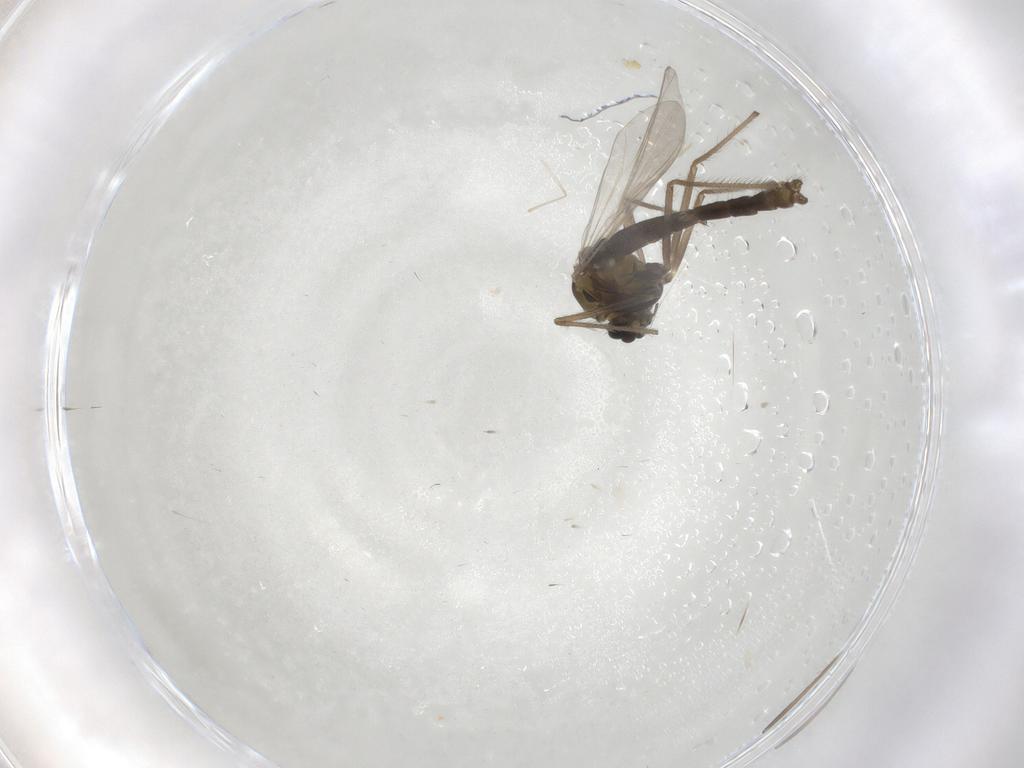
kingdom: Animalia
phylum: Arthropoda
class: Insecta
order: Diptera
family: Chironomidae
